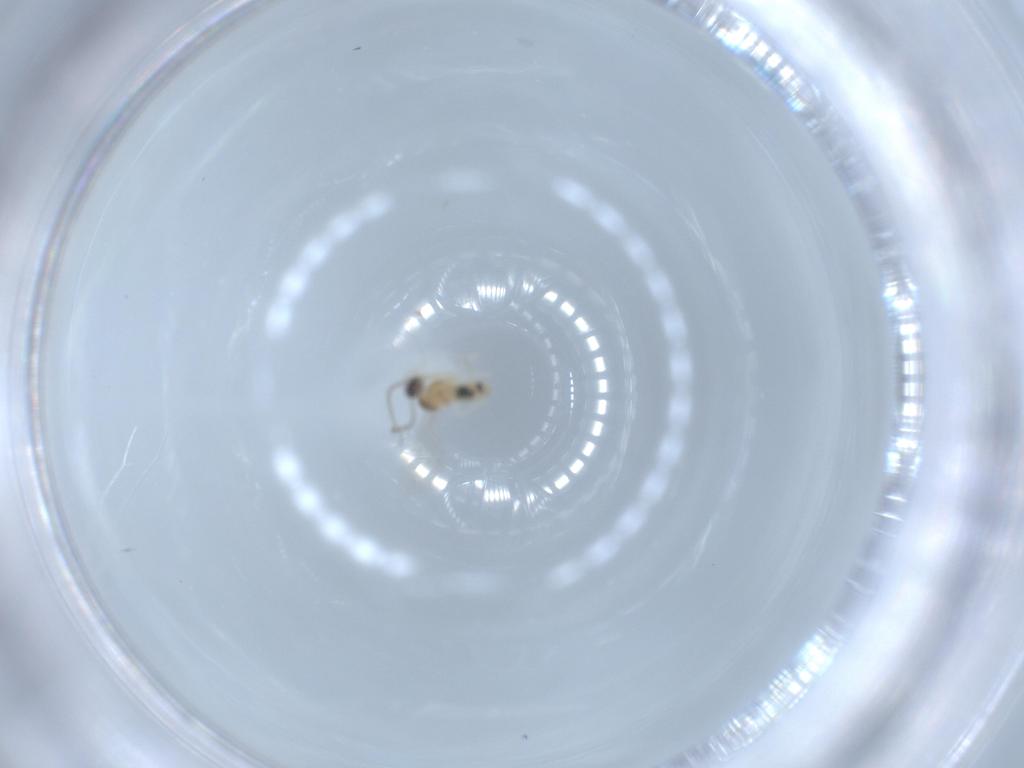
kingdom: Animalia
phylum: Arthropoda
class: Insecta
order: Diptera
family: Cecidomyiidae
